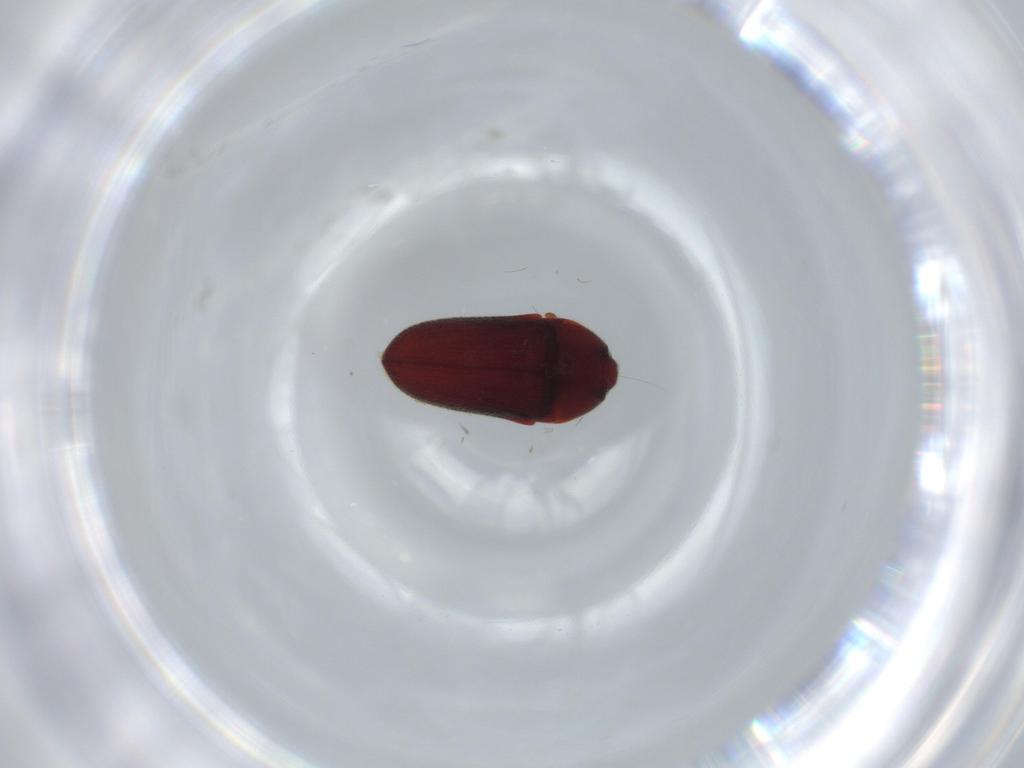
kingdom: Animalia
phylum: Arthropoda
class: Insecta
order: Coleoptera
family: Throscidae
